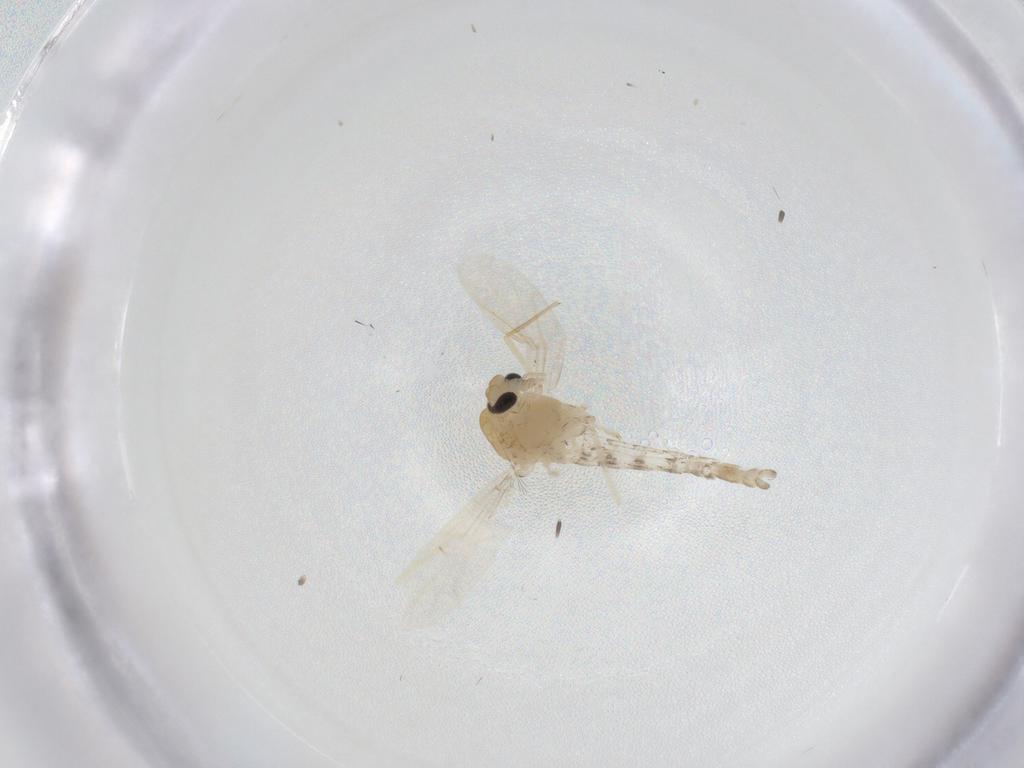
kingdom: Animalia
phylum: Arthropoda
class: Insecta
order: Diptera
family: Chironomidae
